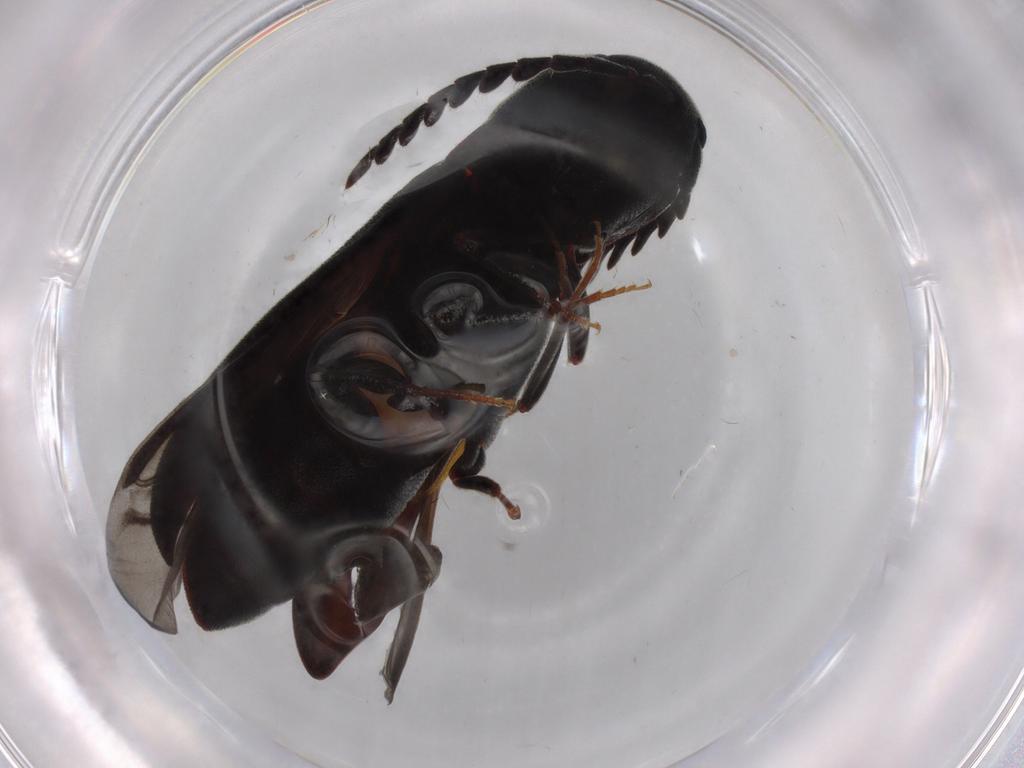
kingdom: Animalia
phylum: Arthropoda
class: Insecta
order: Coleoptera
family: Eucnemidae
